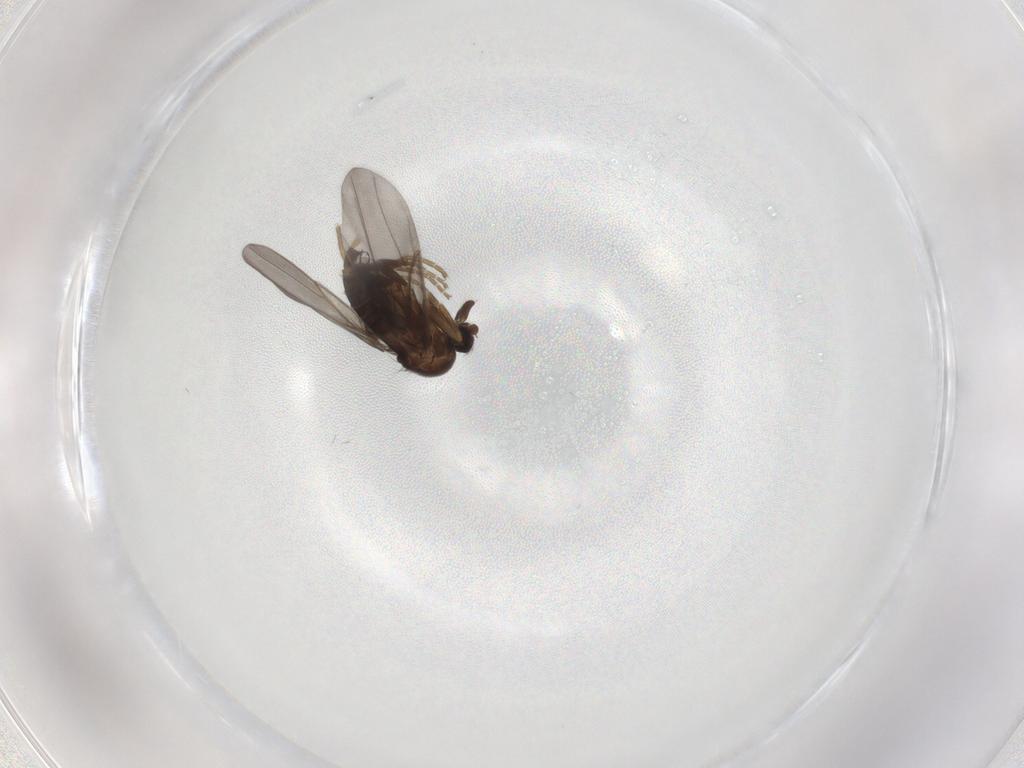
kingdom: Animalia
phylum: Arthropoda
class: Insecta
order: Diptera
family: Phoridae
